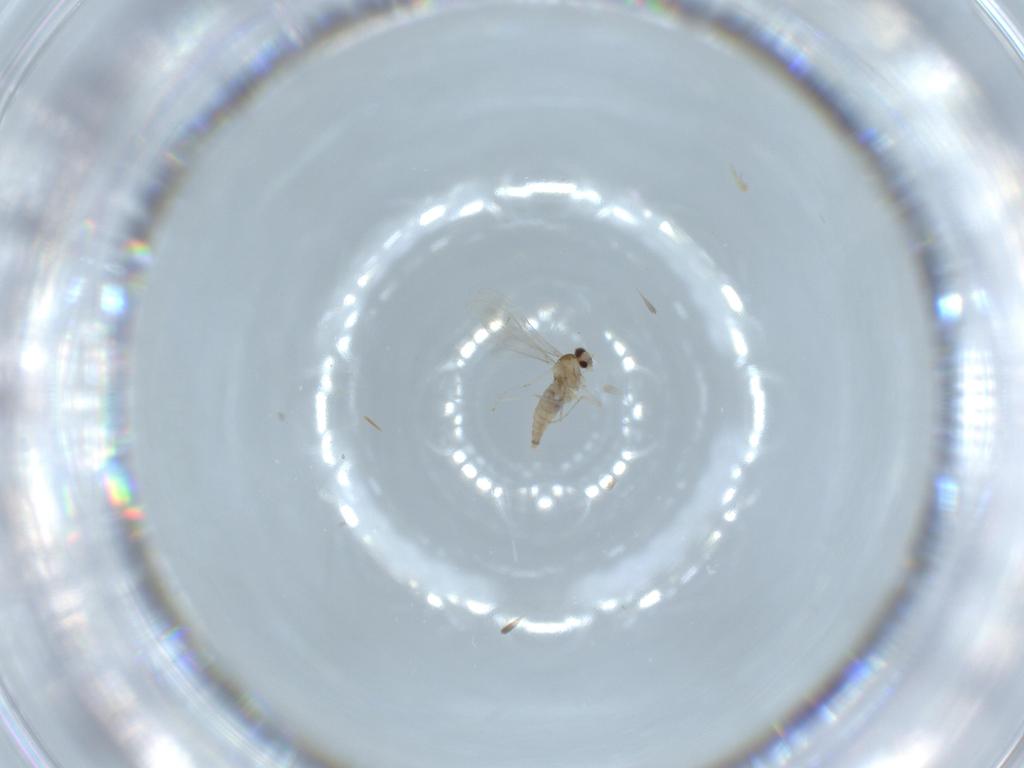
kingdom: Animalia
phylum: Arthropoda
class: Insecta
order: Diptera
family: Cecidomyiidae
